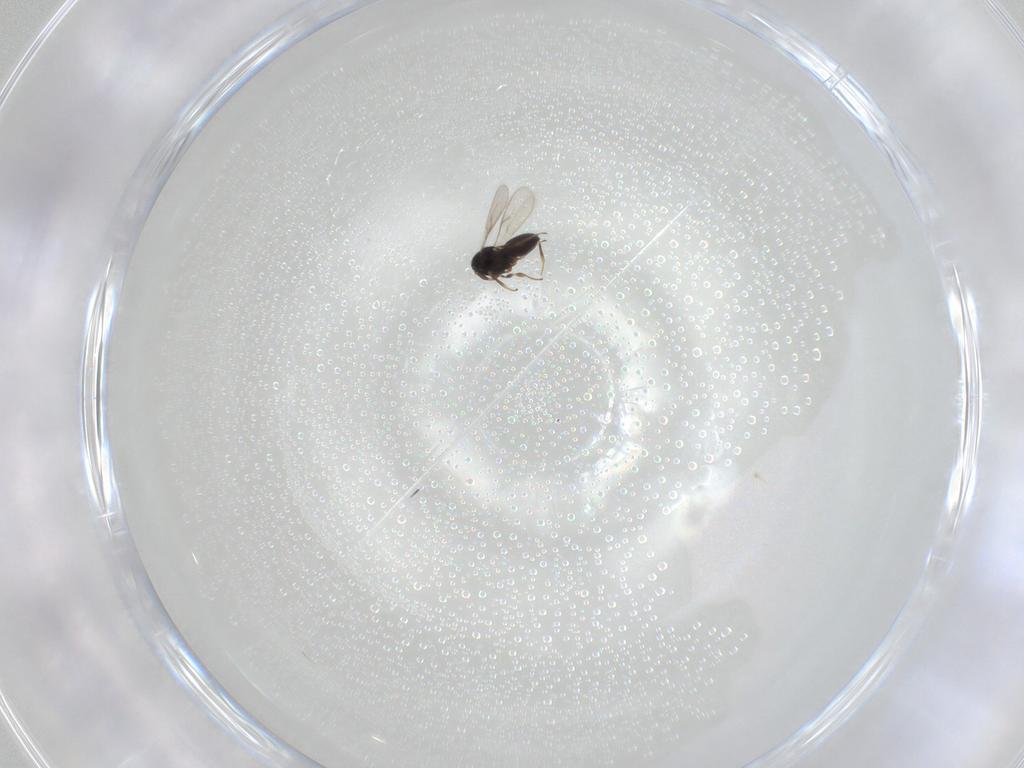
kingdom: Animalia
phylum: Arthropoda
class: Insecta
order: Hymenoptera
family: Scelionidae
